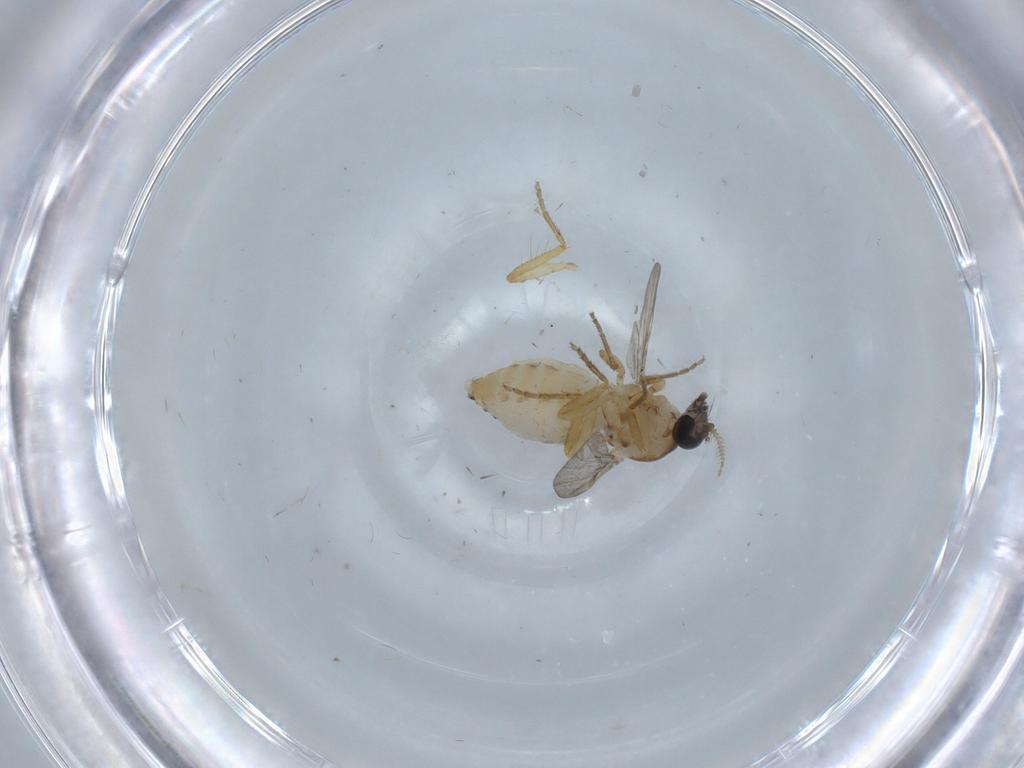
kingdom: Animalia
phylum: Arthropoda
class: Insecta
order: Diptera
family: Ceratopogonidae
